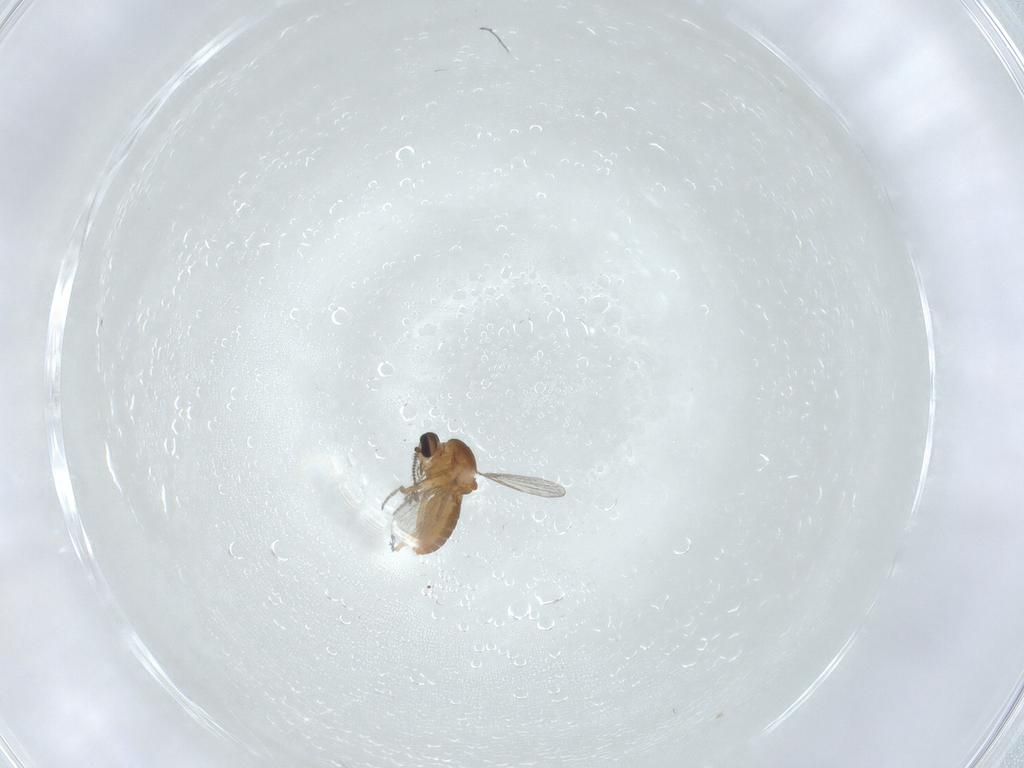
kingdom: Animalia
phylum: Arthropoda
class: Insecta
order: Diptera
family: Ceratopogonidae
